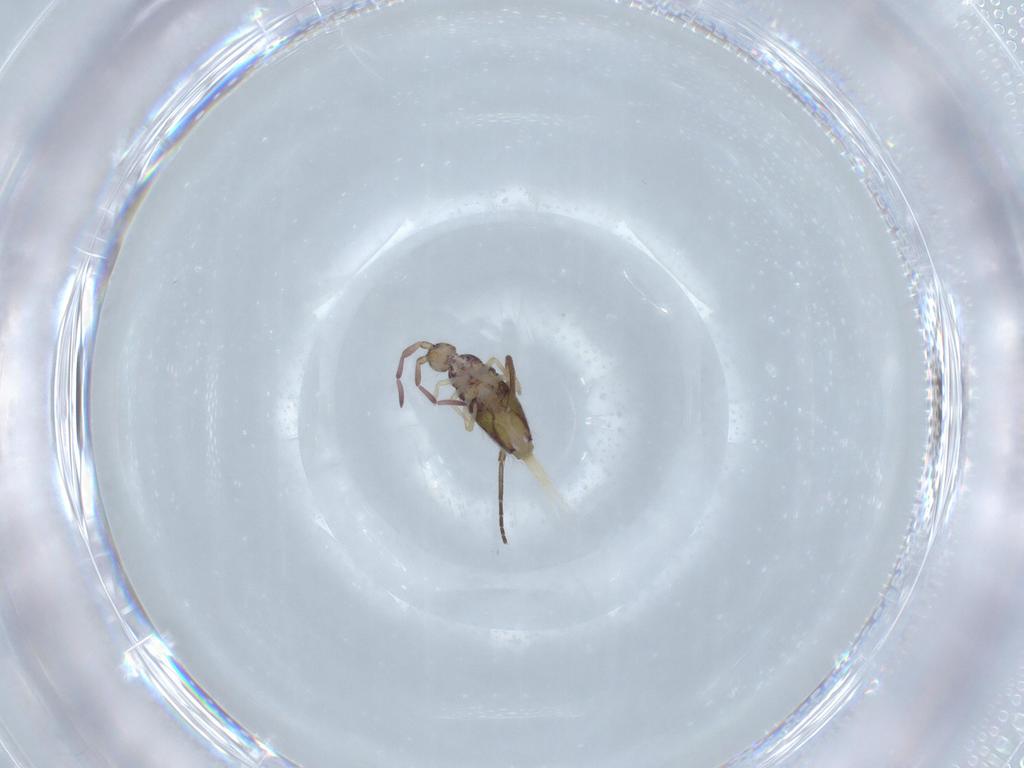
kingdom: Animalia
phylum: Arthropoda
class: Collembola
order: Entomobryomorpha
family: Entomobryidae
